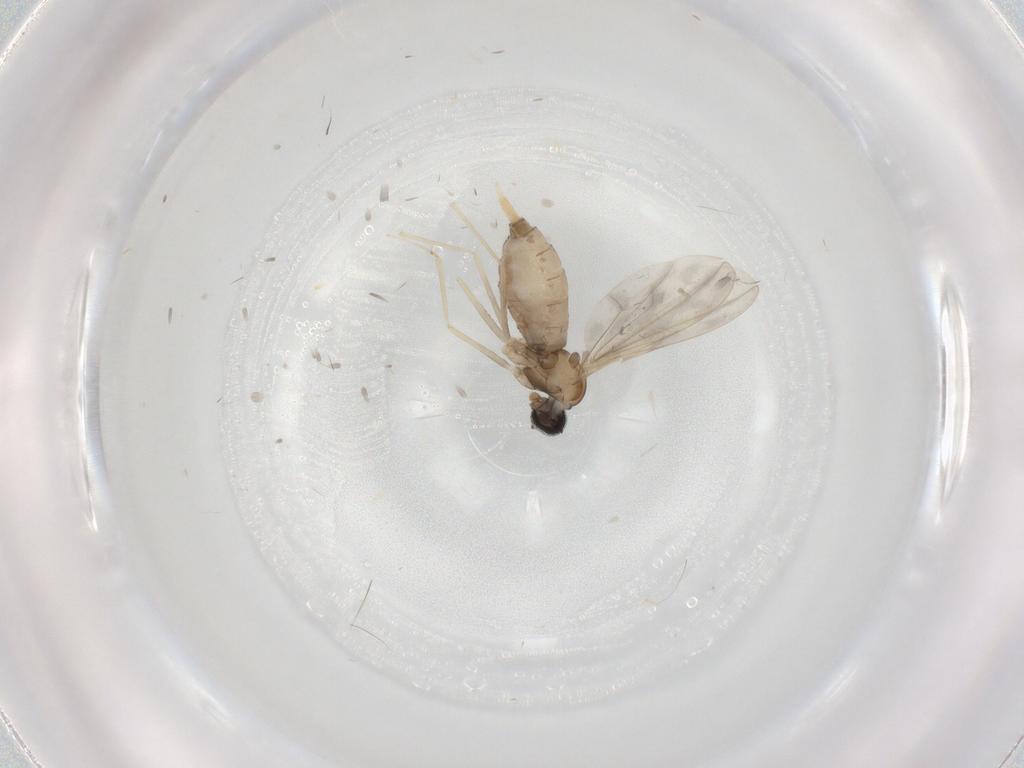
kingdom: Animalia
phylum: Arthropoda
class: Insecta
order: Diptera
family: Cecidomyiidae
